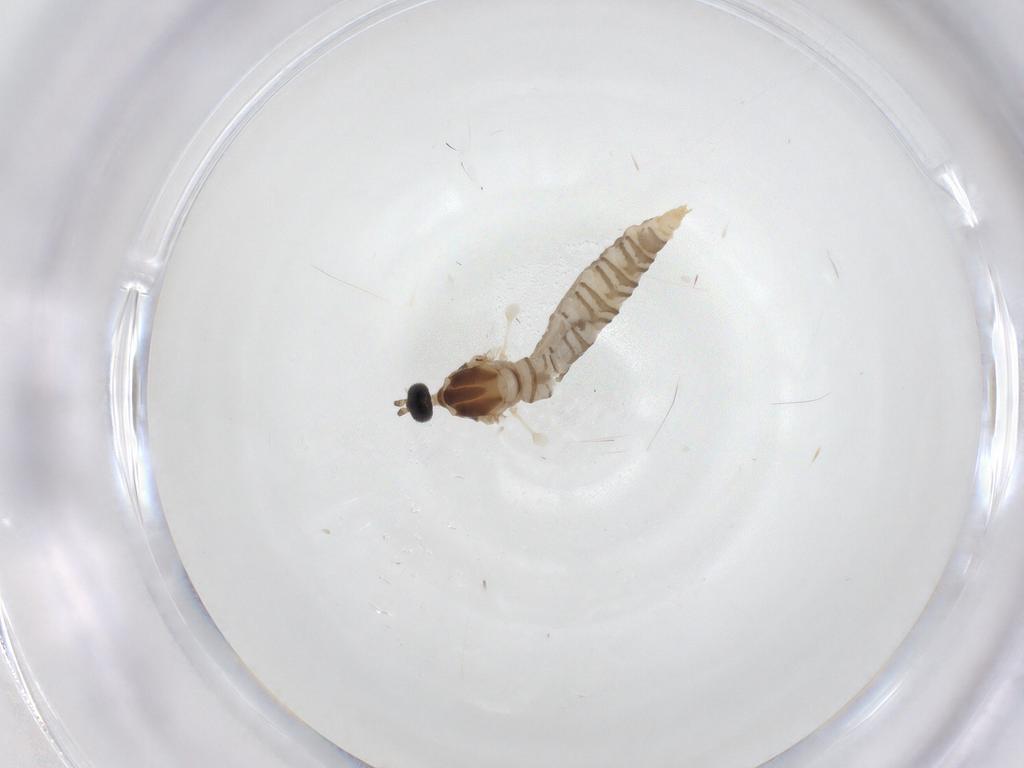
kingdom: Animalia
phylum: Arthropoda
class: Insecta
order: Diptera
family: Cecidomyiidae
